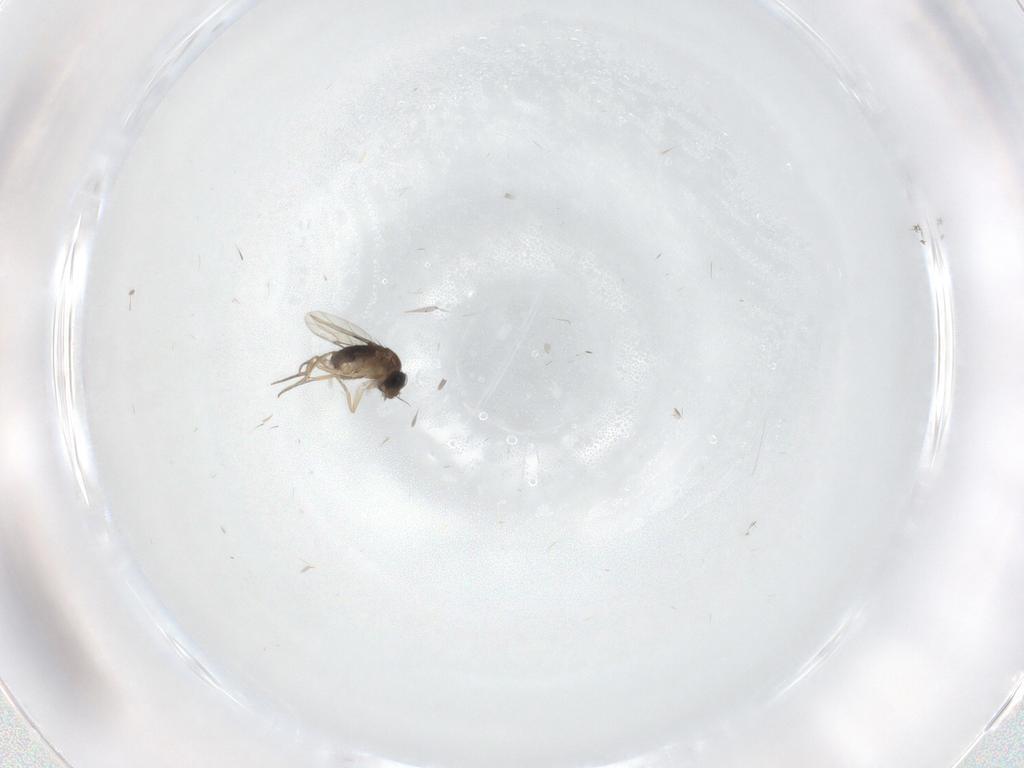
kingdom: Animalia
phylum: Arthropoda
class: Insecta
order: Diptera
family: Phoridae
